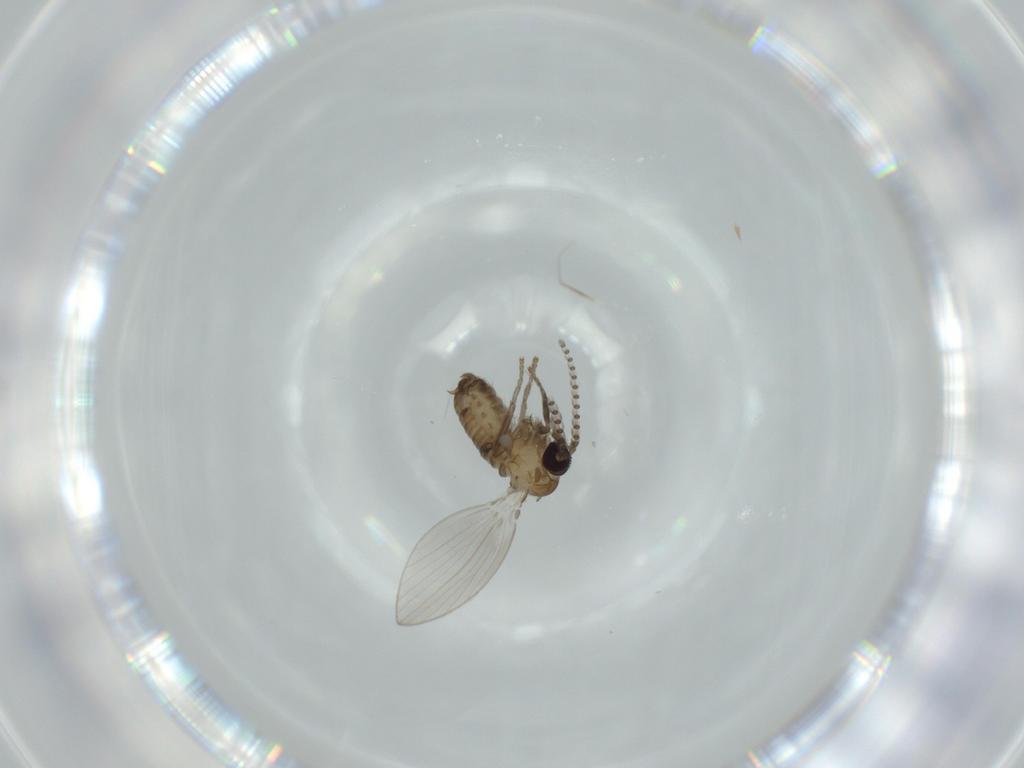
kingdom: Animalia
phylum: Arthropoda
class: Insecta
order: Diptera
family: Psychodidae
